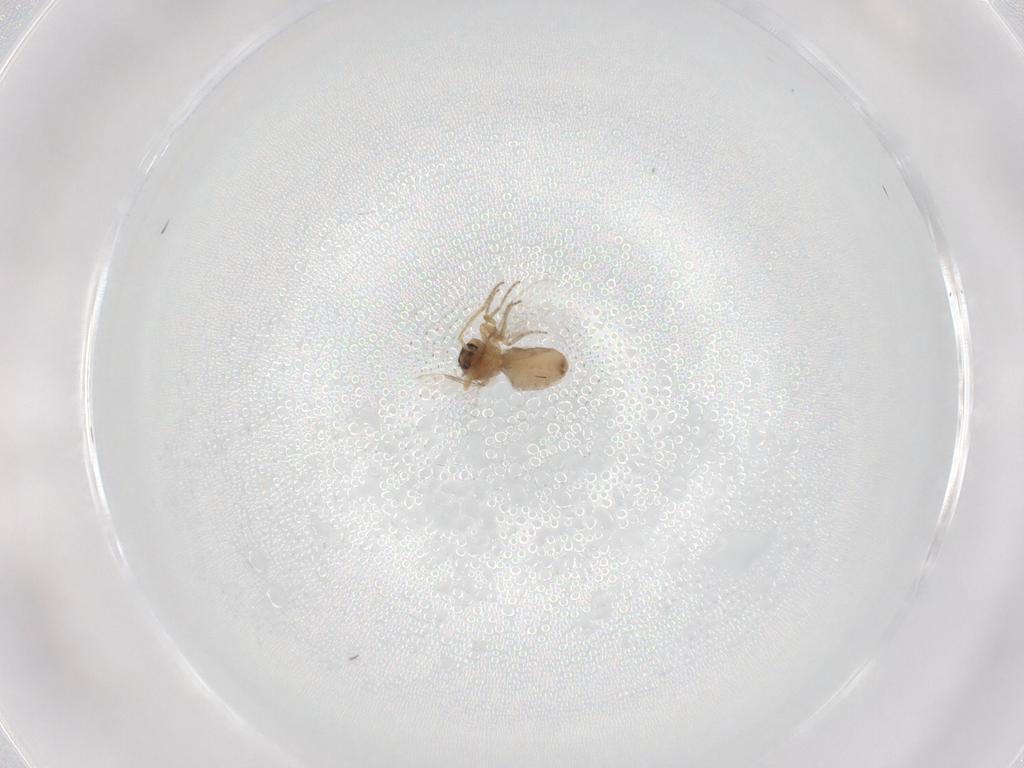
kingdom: Animalia
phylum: Arthropoda
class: Insecta
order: Diptera
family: Ceratopogonidae
